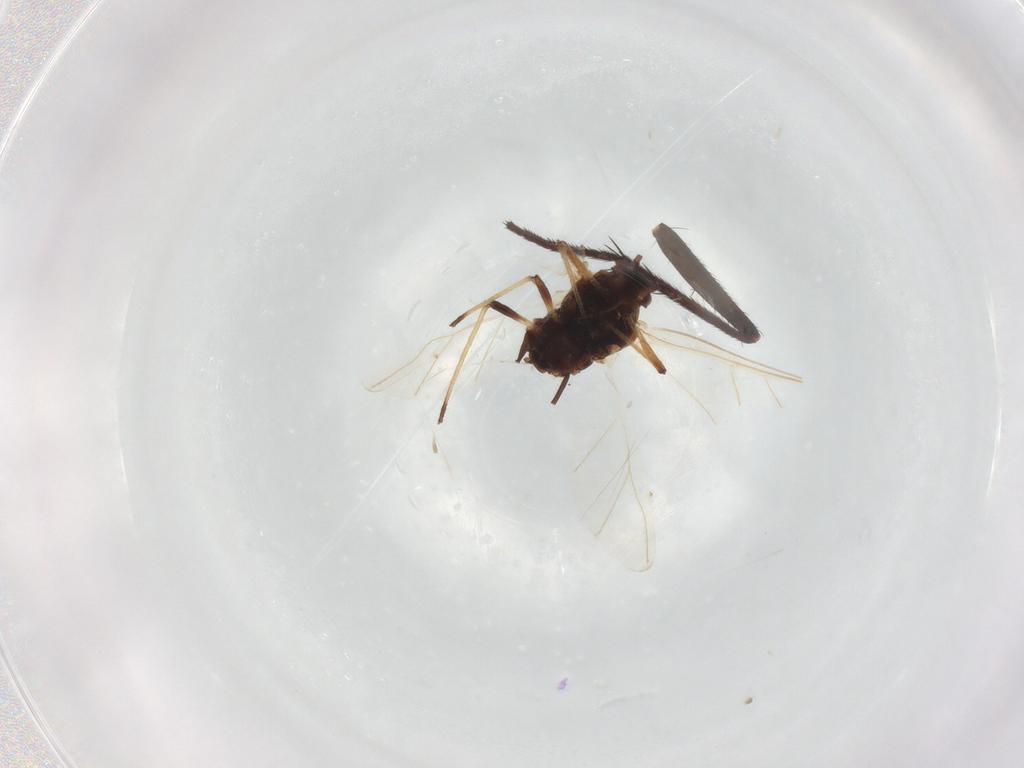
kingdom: Animalia
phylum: Arthropoda
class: Insecta
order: Hemiptera
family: Aphididae
